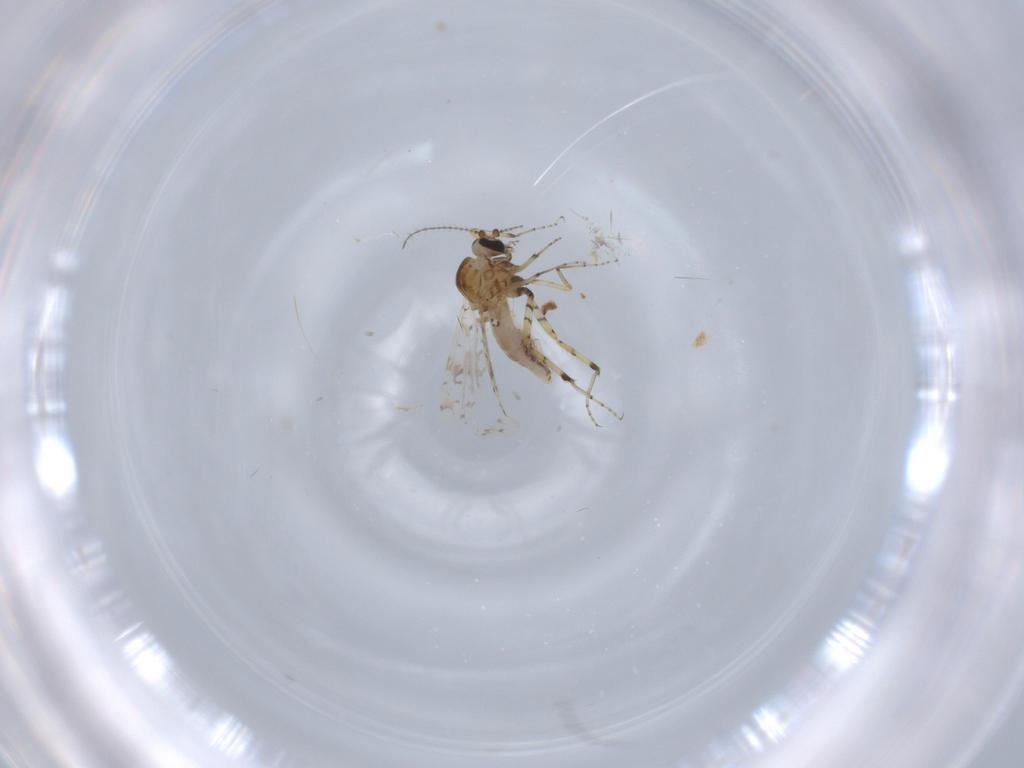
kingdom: Animalia
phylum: Arthropoda
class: Insecta
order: Diptera
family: Ceratopogonidae
